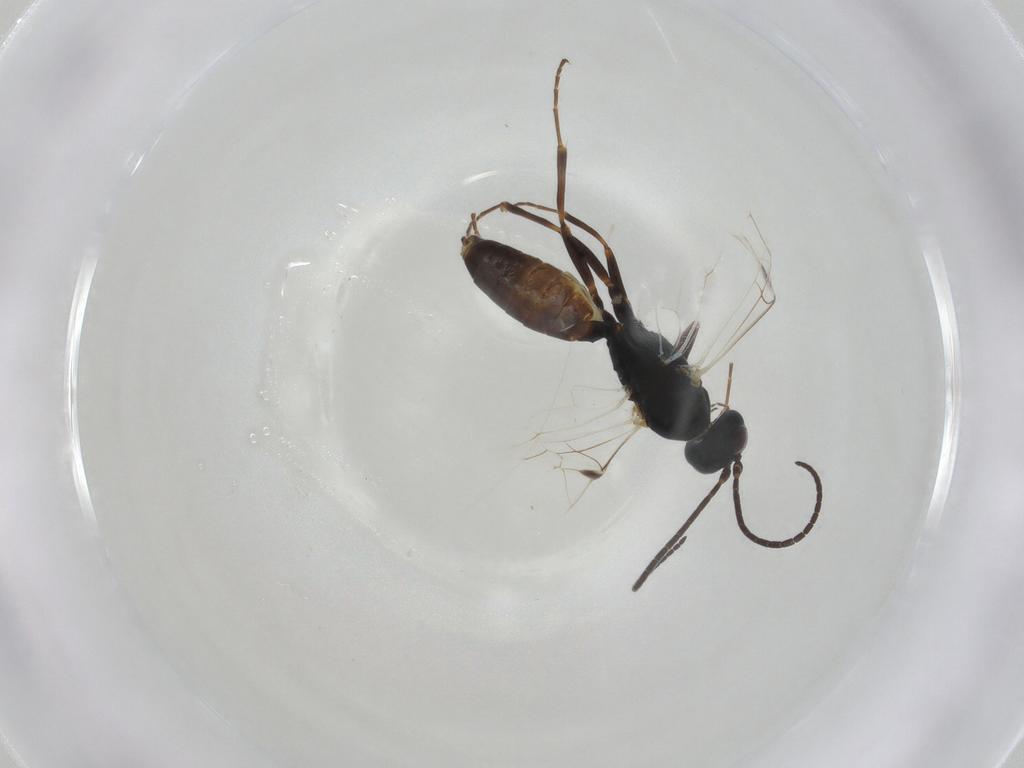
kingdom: Animalia
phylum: Arthropoda
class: Insecta
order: Hymenoptera
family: Ichneumonidae
